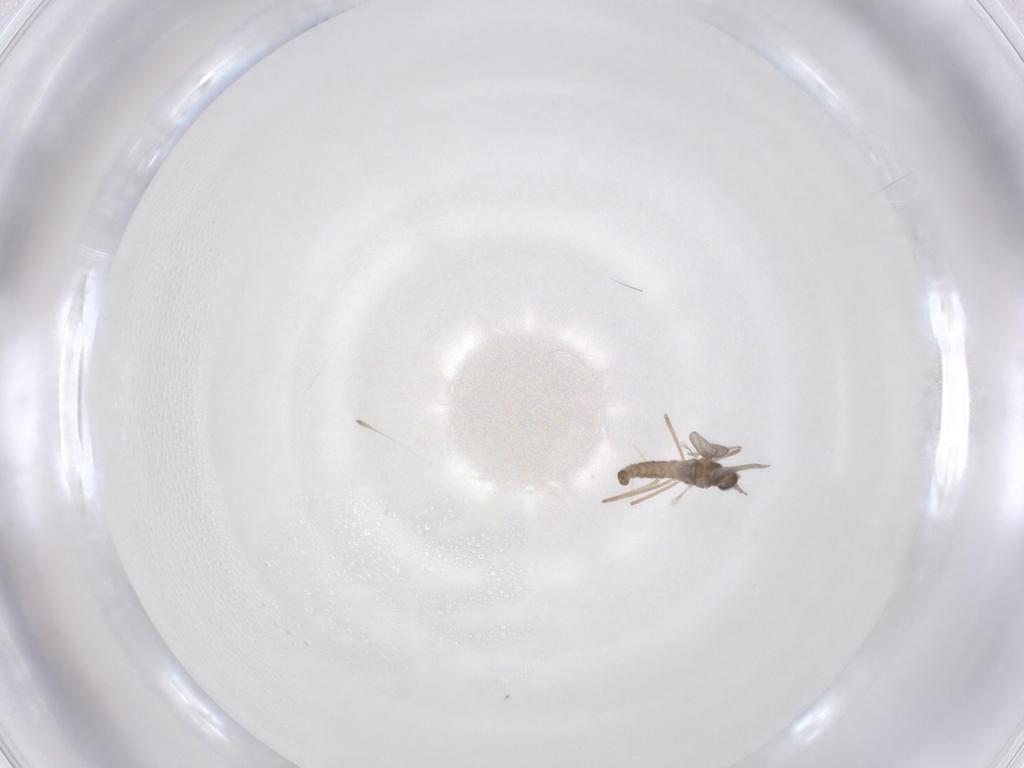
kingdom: Animalia
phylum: Arthropoda
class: Insecta
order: Diptera
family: Cecidomyiidae
